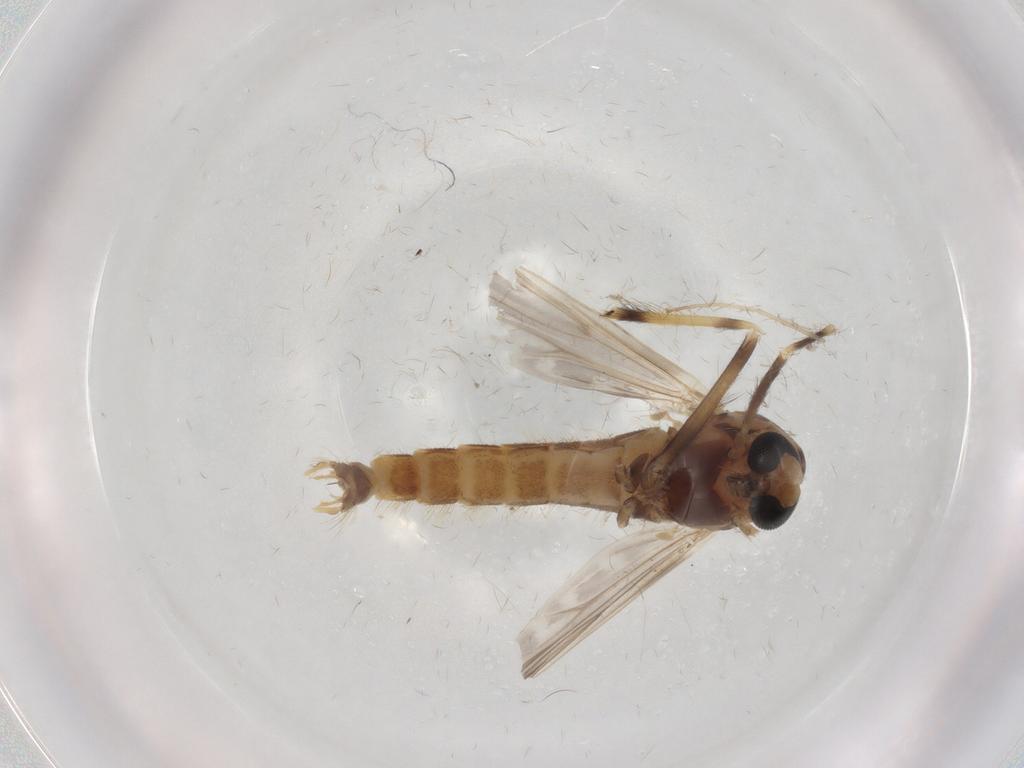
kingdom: Animalia
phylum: Arthropoda
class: Insecta
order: Diptera
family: Chironomidae
